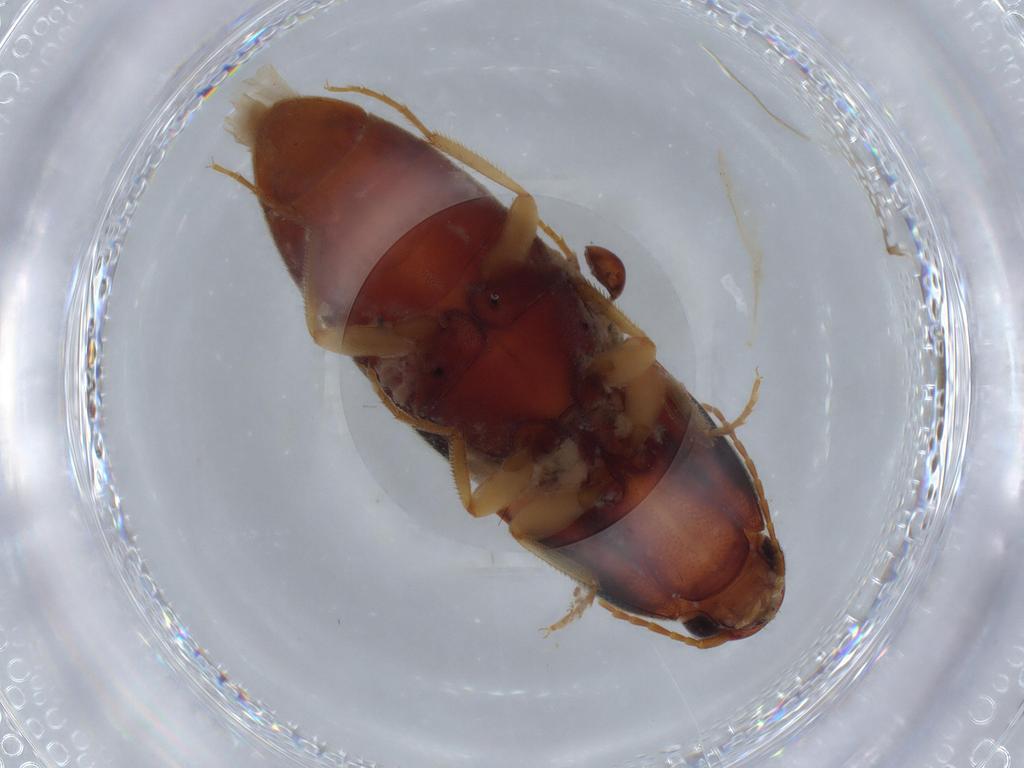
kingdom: Animalia
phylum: Arthropoda
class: Insecta
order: Coleoptera
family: Elateridae
